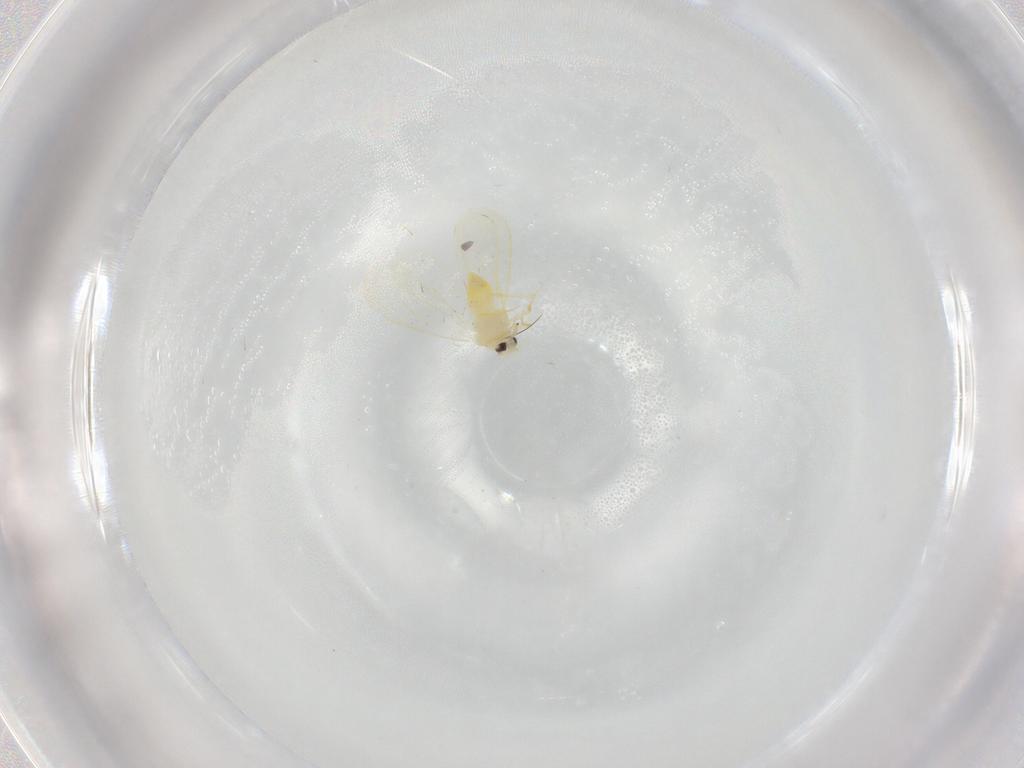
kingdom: Animalia
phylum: Arthropoda
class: Insecta
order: Hemiptera
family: Aleyrodidae
